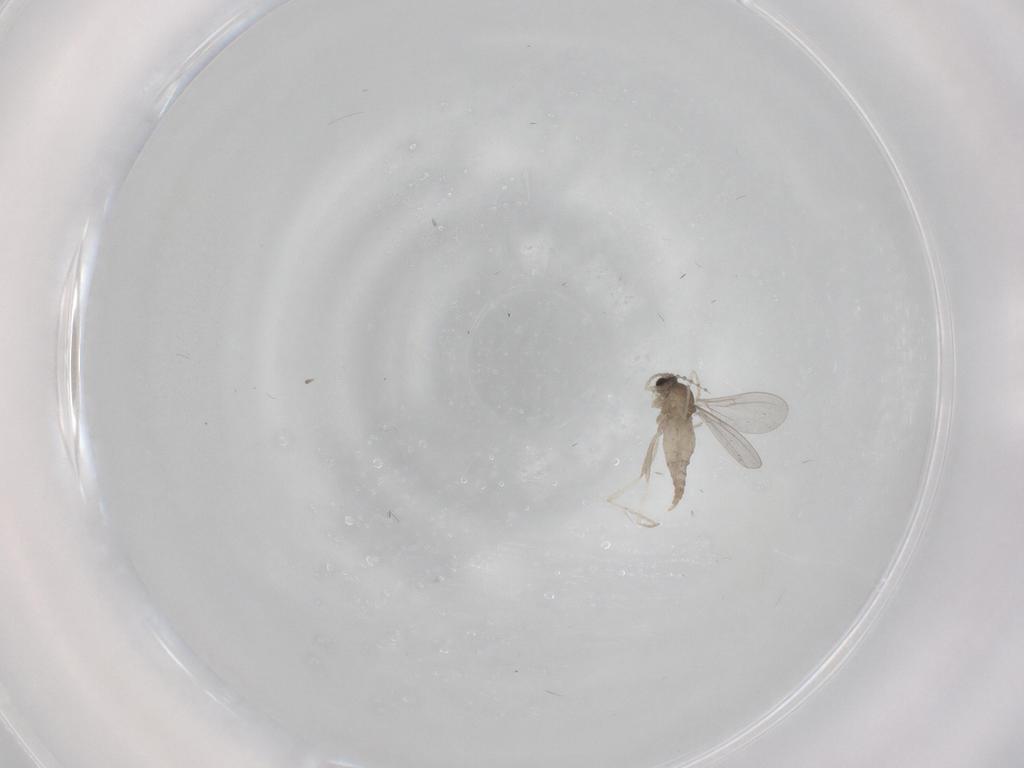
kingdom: Animalia
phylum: Arthropoda
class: Insecta
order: Diptera
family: Cecidomyiidae
